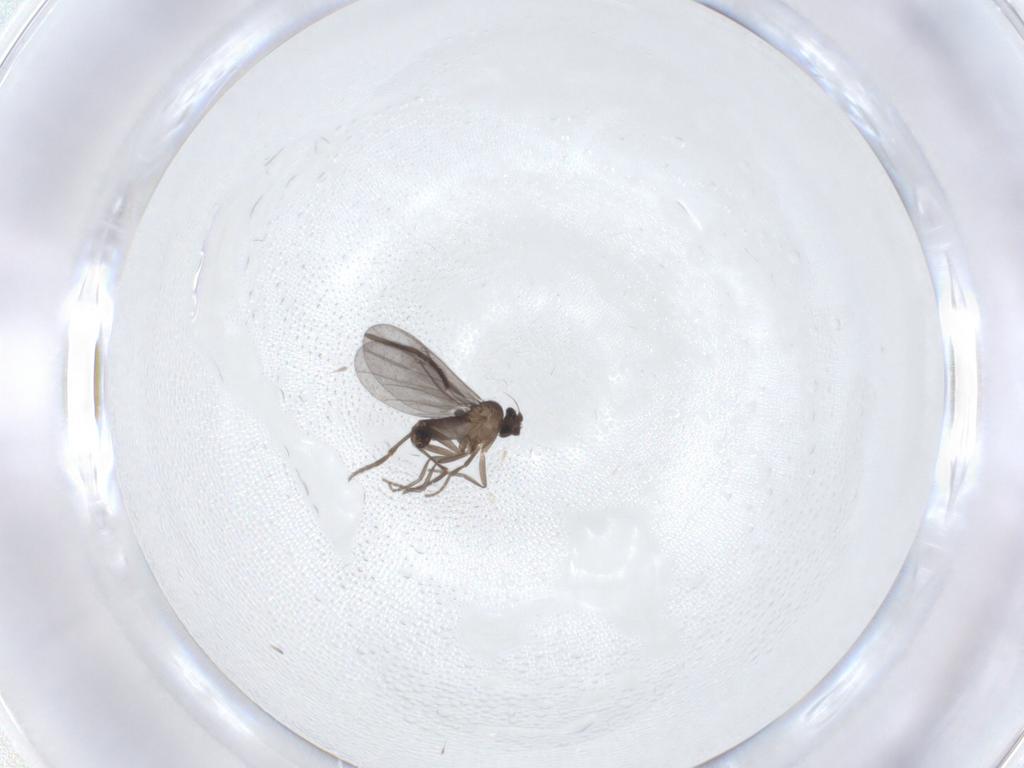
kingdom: Animalia
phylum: Arthropoda
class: Insecta
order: Diptera
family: Sciaridae
